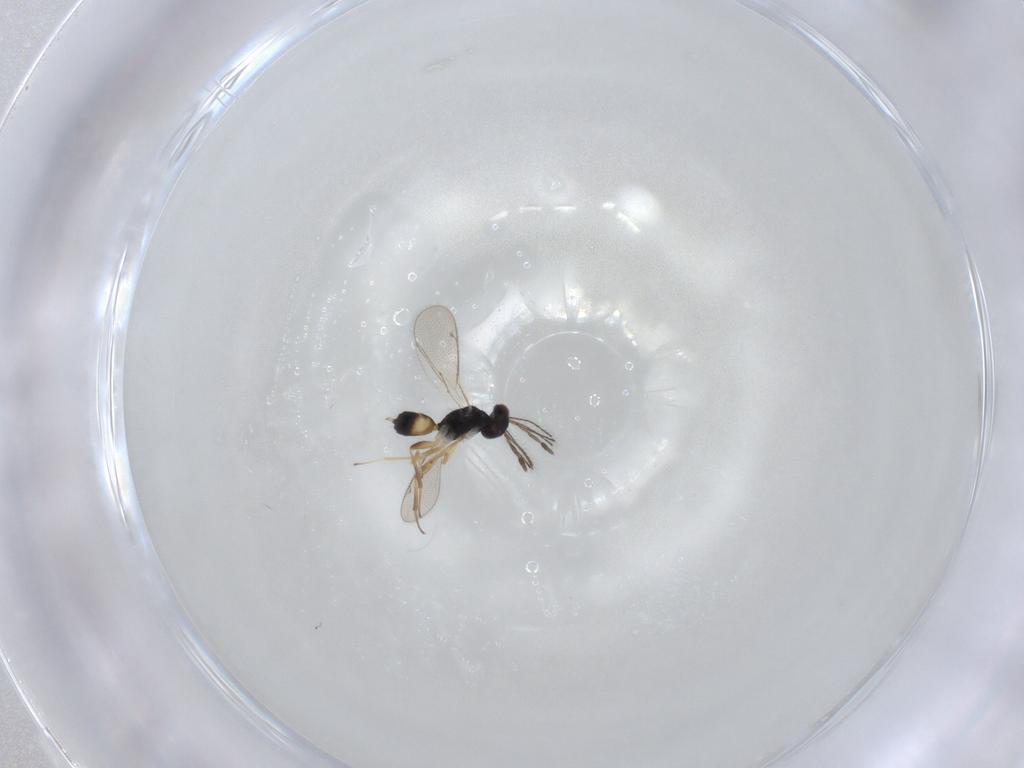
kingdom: Animalia
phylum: Arthropoda
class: Insecta
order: Hymenoptera
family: Eulophidae
